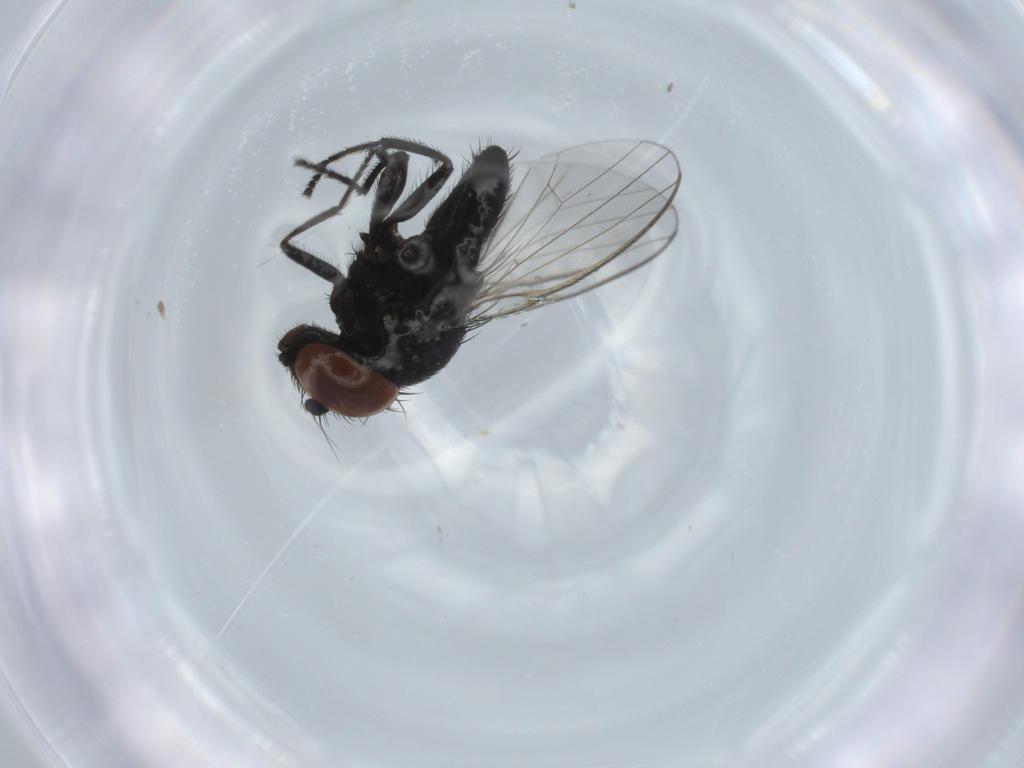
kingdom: Animalia
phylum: Arthropoda
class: Insecta
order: Diptera
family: Milichiidae
